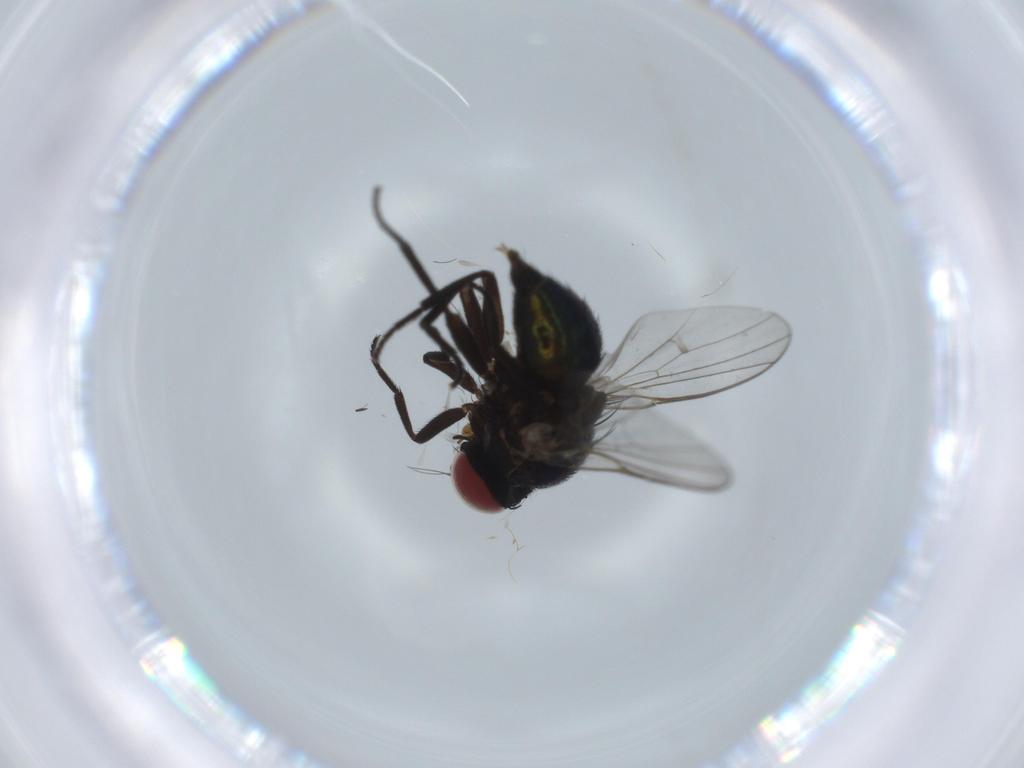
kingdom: Animalia
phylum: Arthropoda
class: Insecta
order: Diptera
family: Agromyzidae
